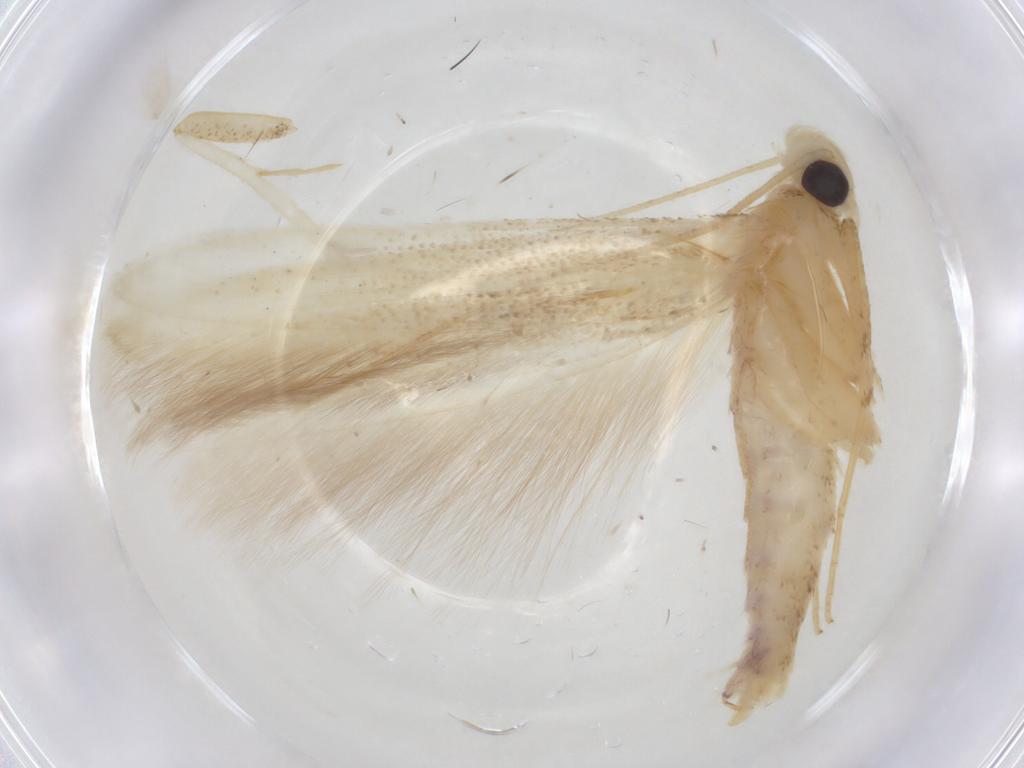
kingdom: Animalia
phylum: Arthropoda
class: Insecta
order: Lepidoptera
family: Batrachedridae
